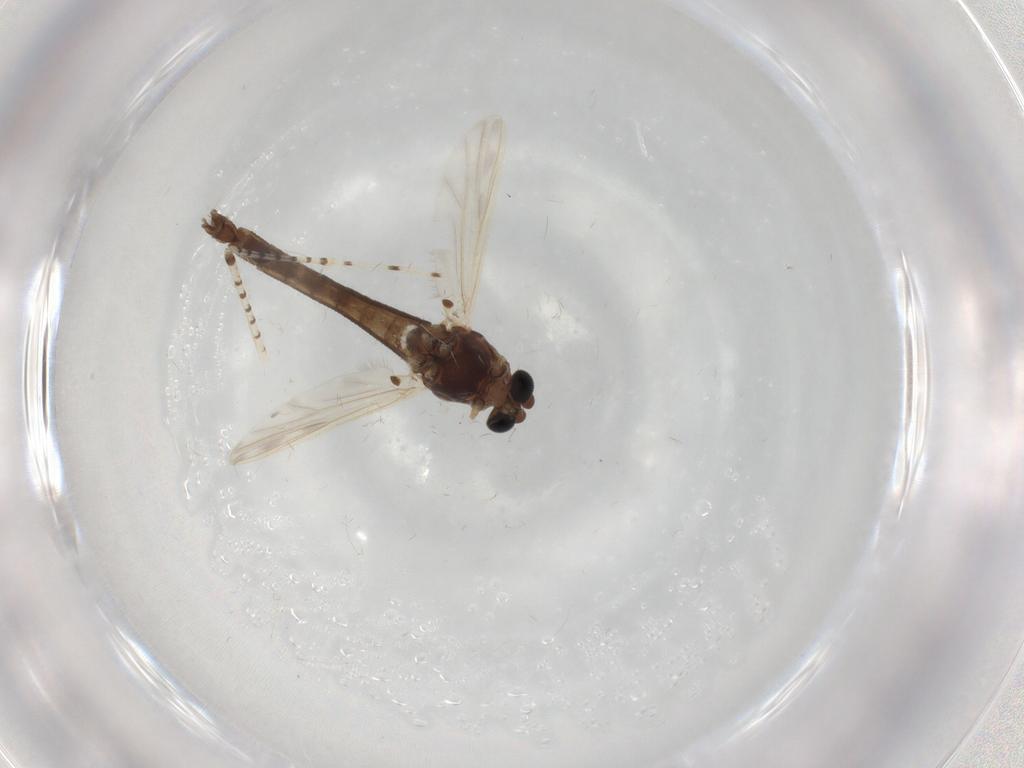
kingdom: Animalia
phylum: Arthropoda
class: Insecta
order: Diptera
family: Chironomidae
